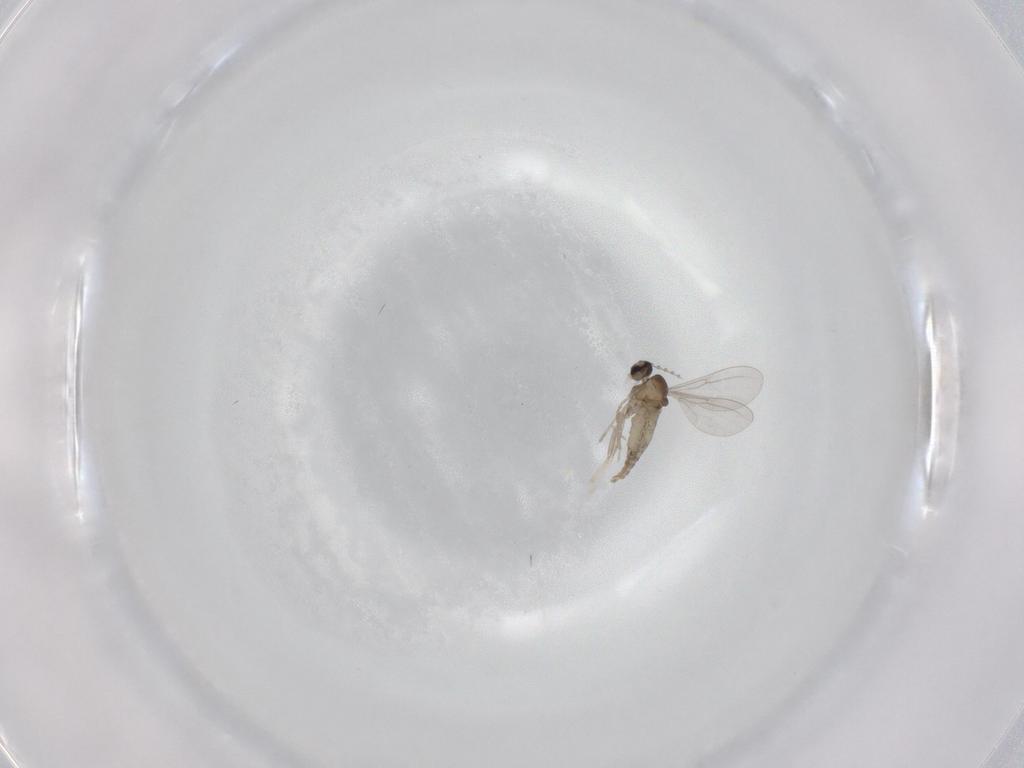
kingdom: Animalia
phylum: Arthropoda
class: Insecta
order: Diptera
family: Cecidomyiidae
